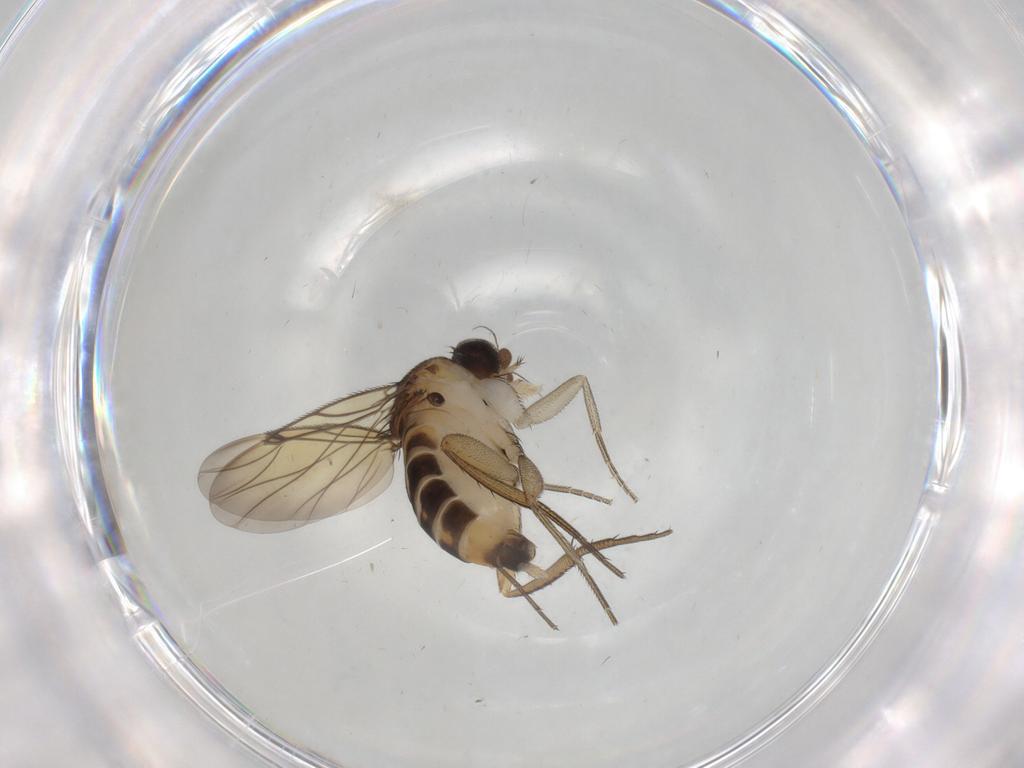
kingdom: Animalia
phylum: Arthropoda
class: Insecta
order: Diptera
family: Limoniidae
